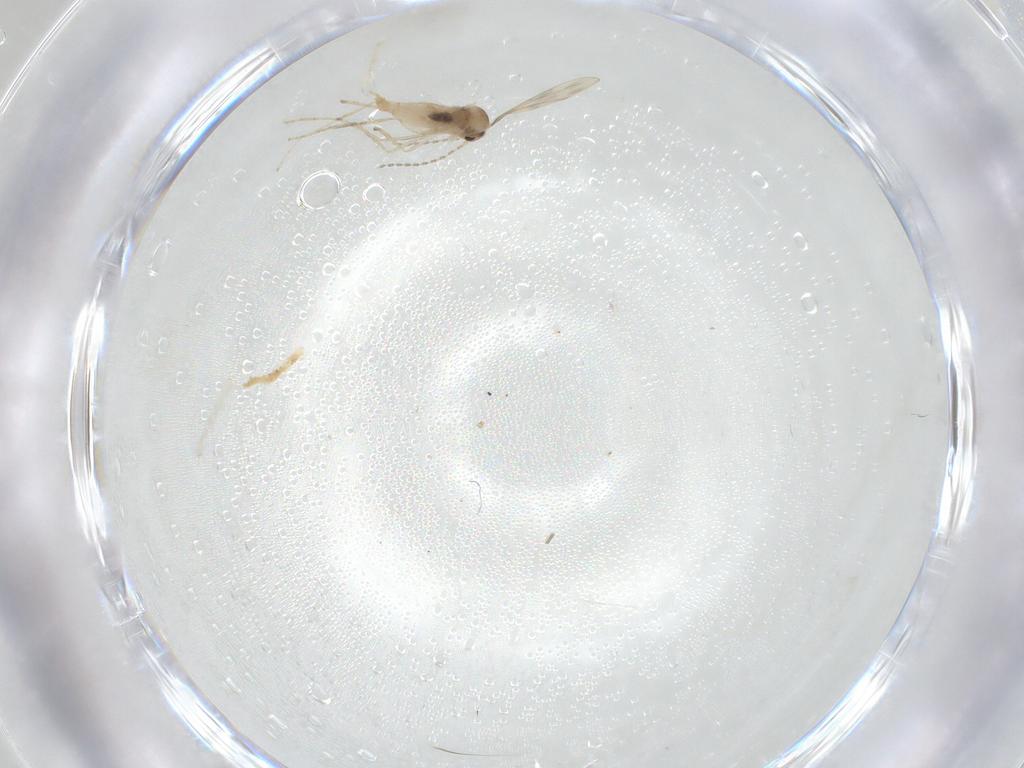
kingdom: Animalia
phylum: Arthropoda
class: Insecta
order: Diptera
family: Cecidomyiidae
